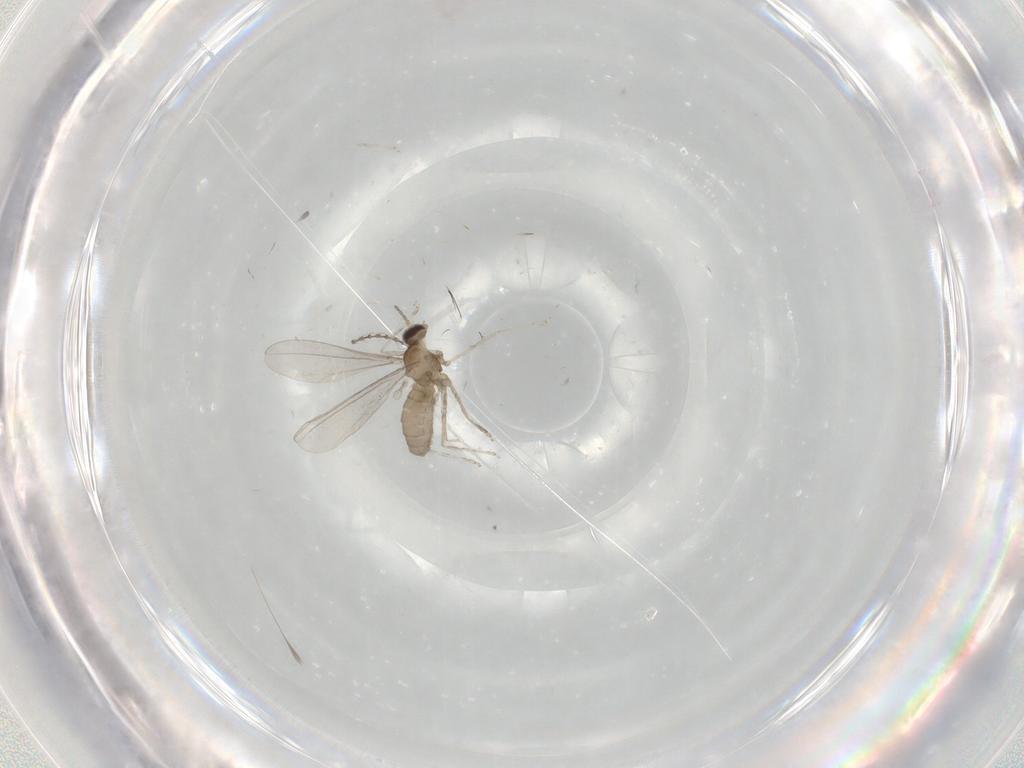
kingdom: Animalia
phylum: Arthropoda
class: Insecta
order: Diptera
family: Cecidomyiidae
